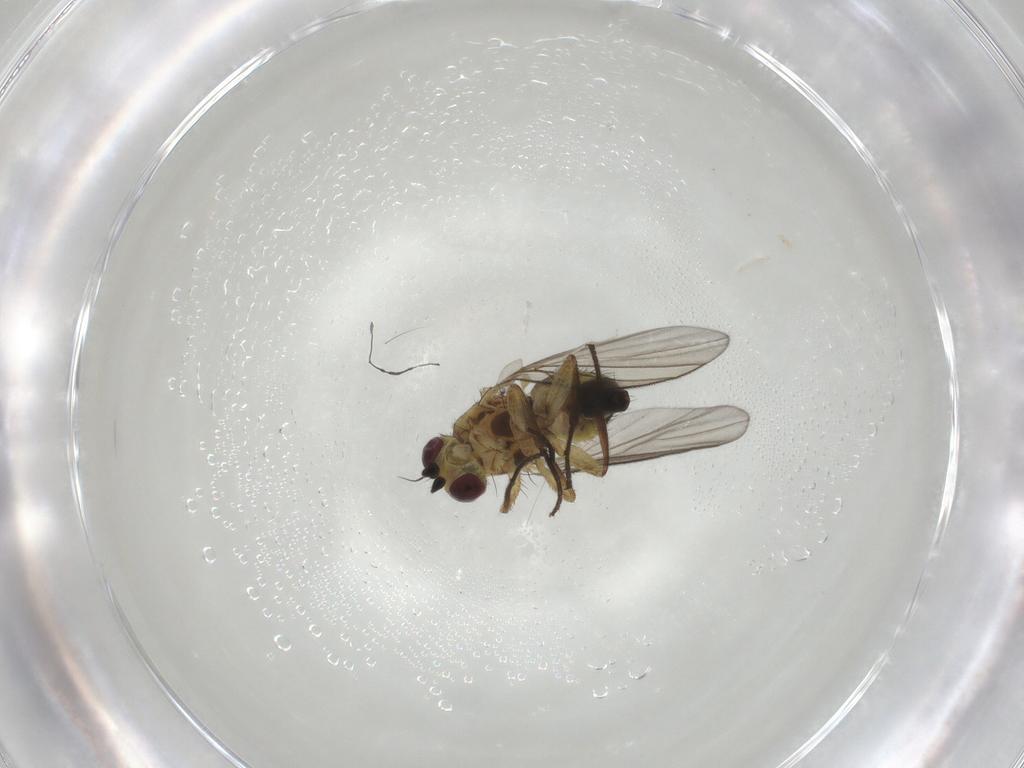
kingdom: Animalia
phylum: Arthropoda
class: Insecta
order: Diptera
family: Agromyzidae
